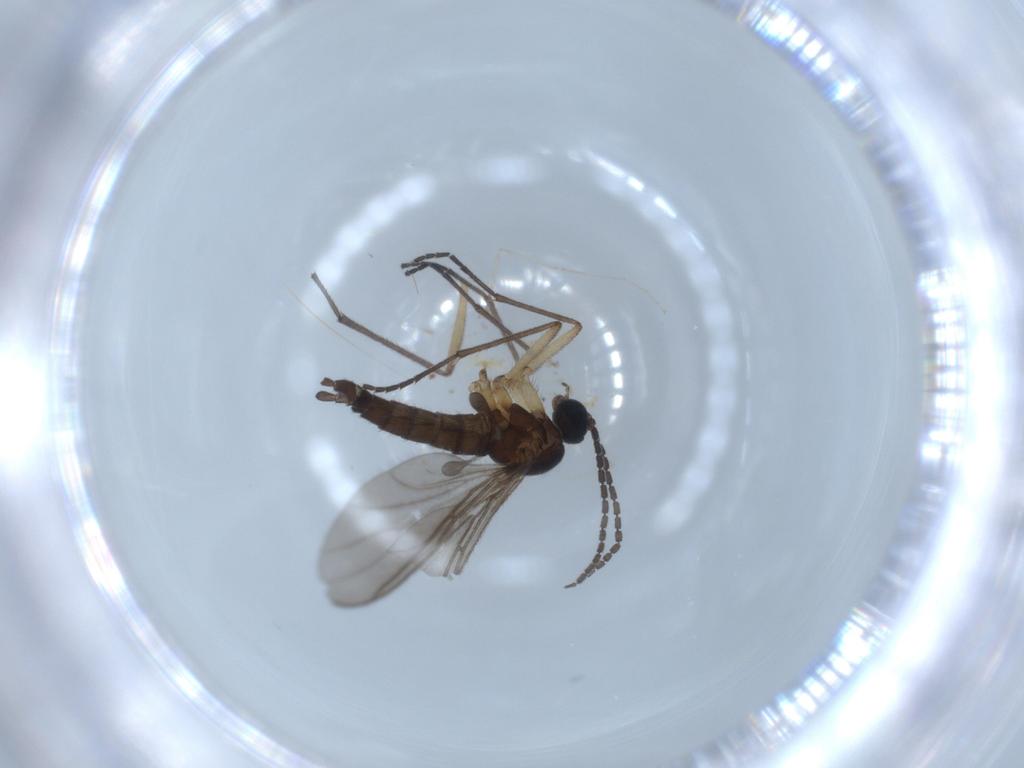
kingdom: Animalia
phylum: Arthropoda
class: Insecta
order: Diptera
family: Sciaridae
